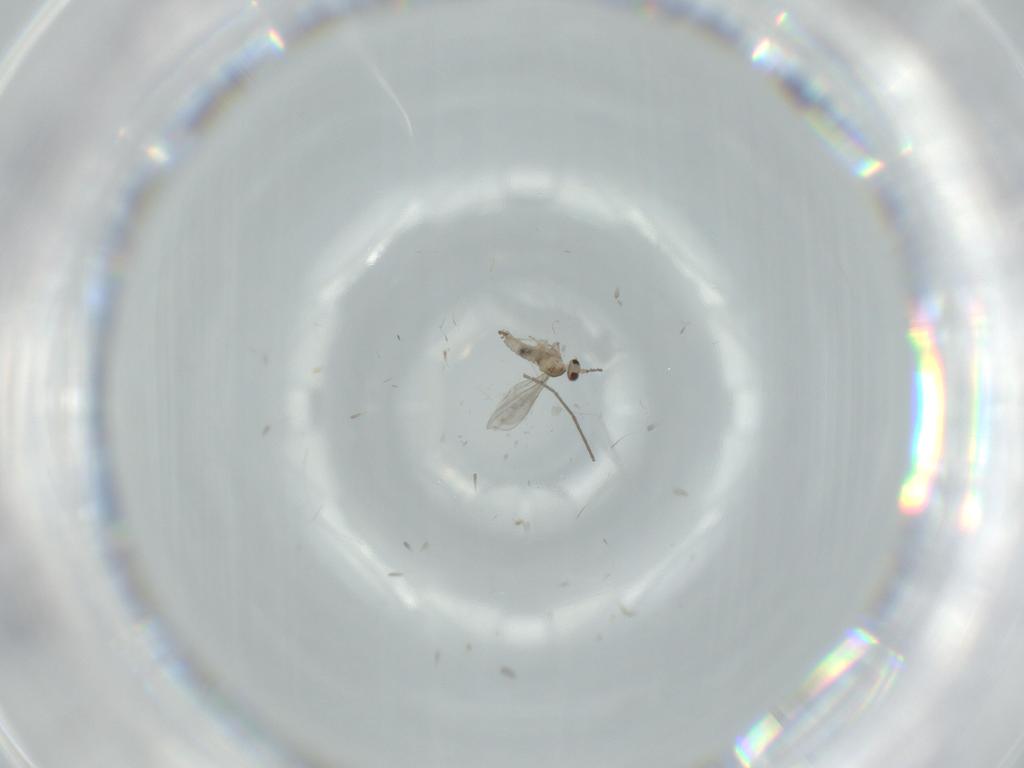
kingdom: Animalia
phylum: Arthropoda
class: Insecta
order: Diptera
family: Chironomidae
